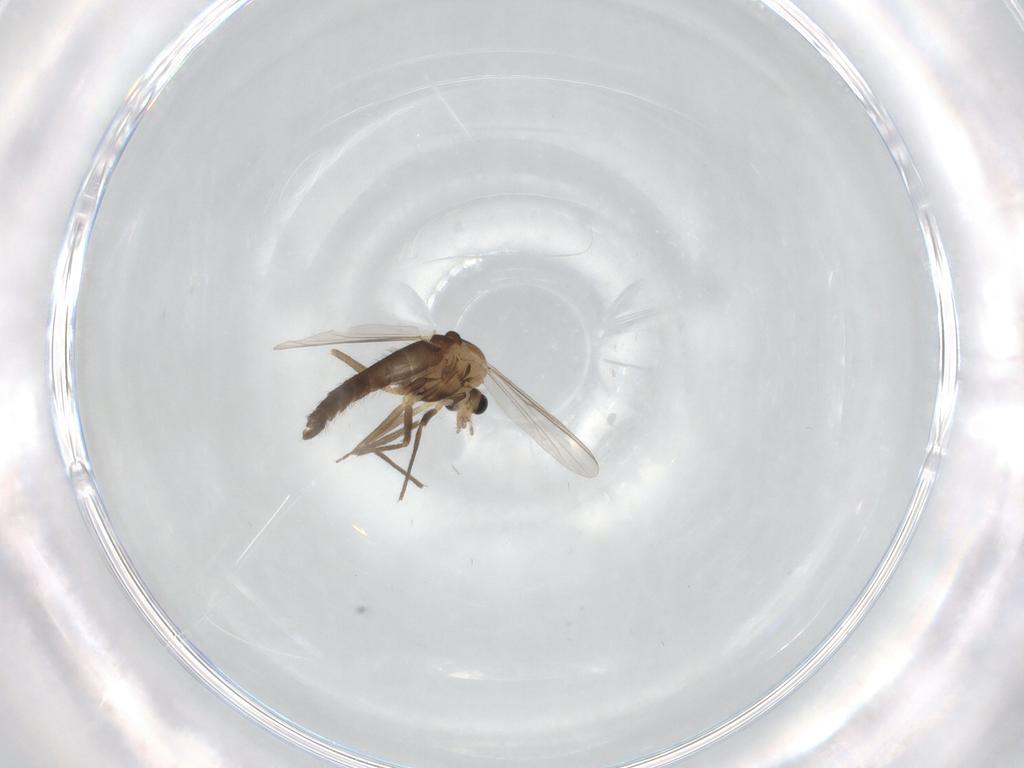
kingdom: Animalia
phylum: Arthropoda
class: Insecta
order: Diptera
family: Chironomidae
